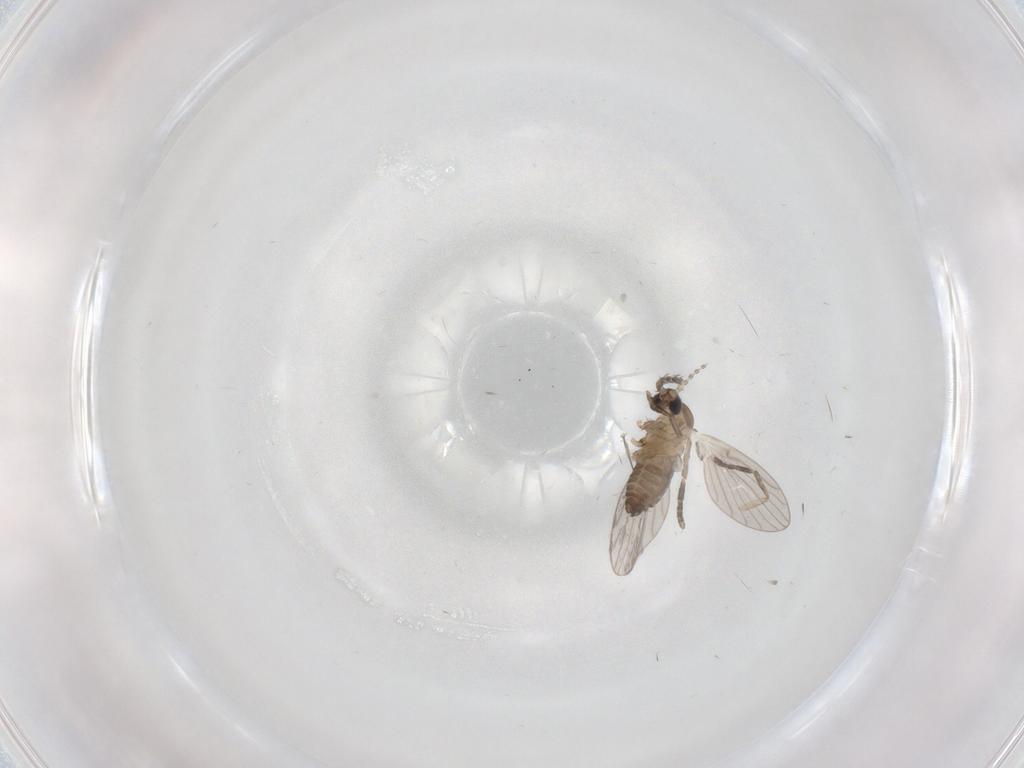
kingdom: Animalia
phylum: Arthropoda
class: Insecta
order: Diptera
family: Psychodidae
